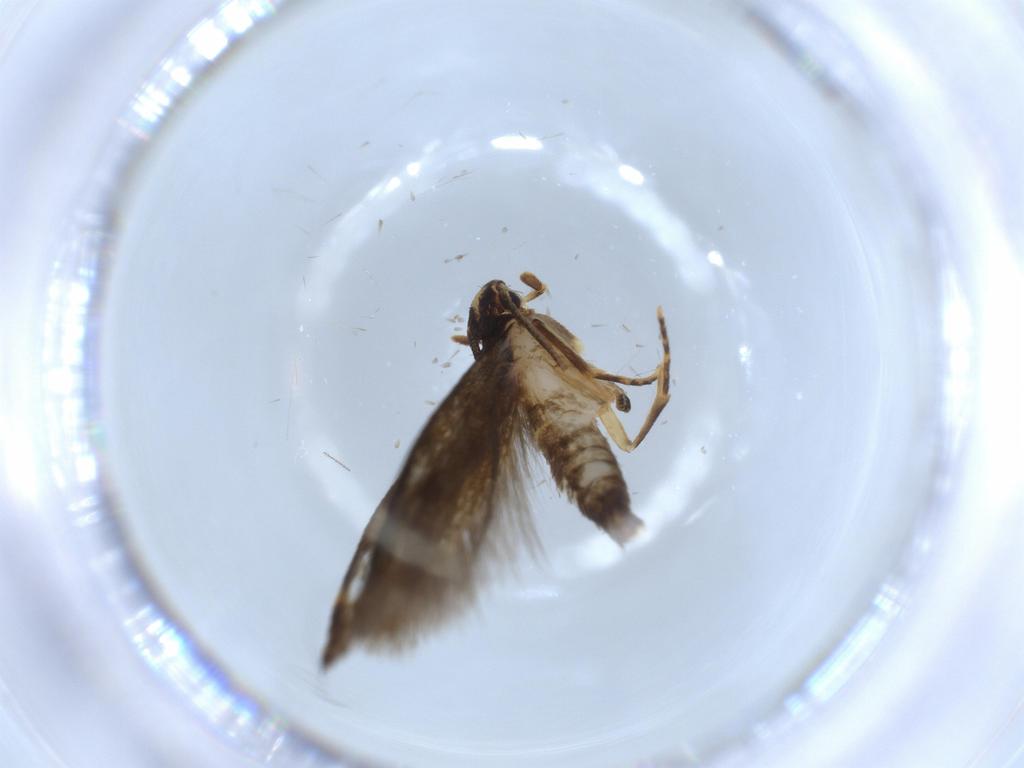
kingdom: Animalia
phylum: Arthropoda
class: Insecta
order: Lepidoptera
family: Tineidae
